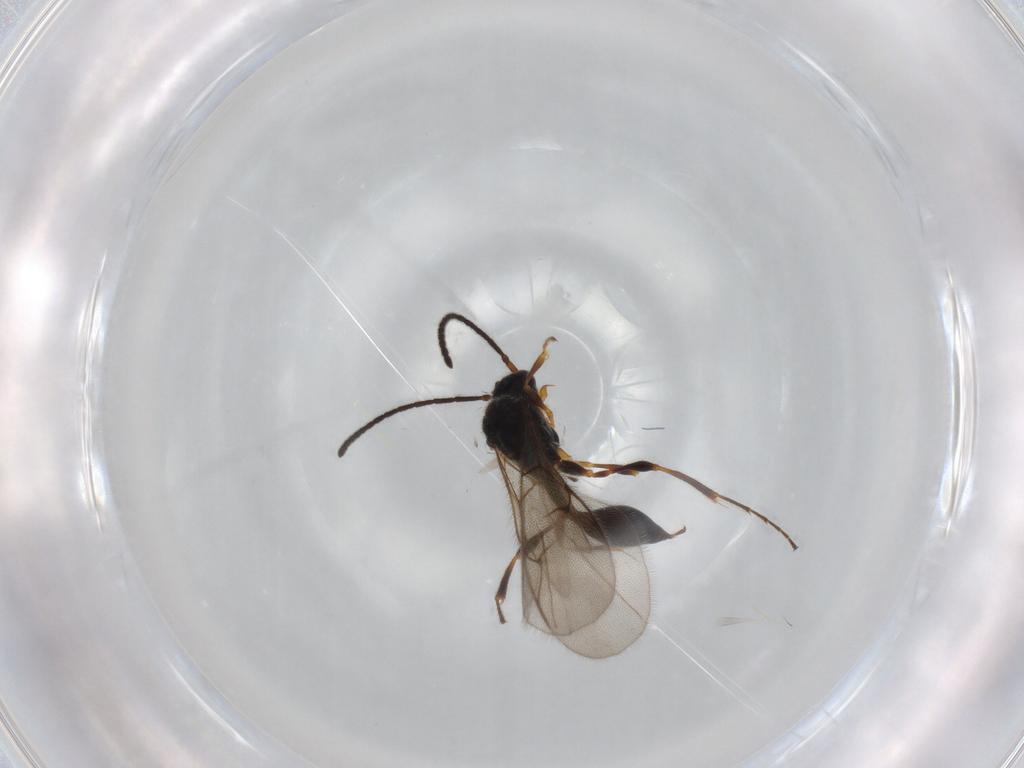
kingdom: Animalia
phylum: Arthropoda
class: Insecta
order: Hymenoptera
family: Diapriidae
